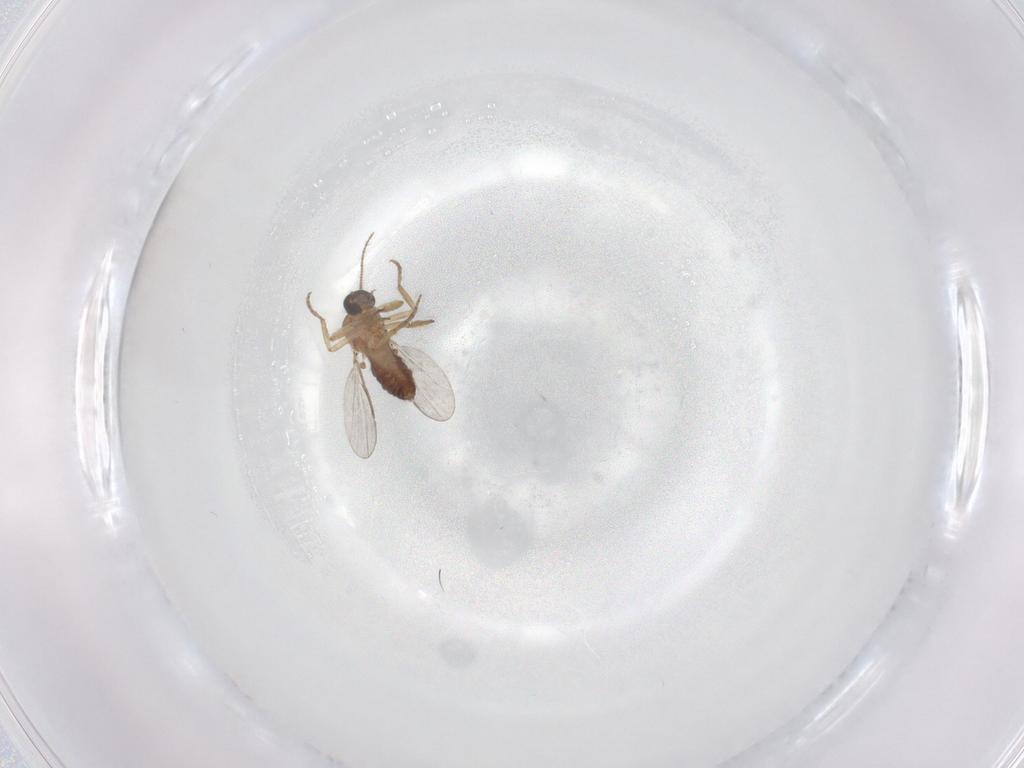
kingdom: Animalia
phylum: Arthropoda
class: Insecta
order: Diptera
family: Ceratopogonidae
